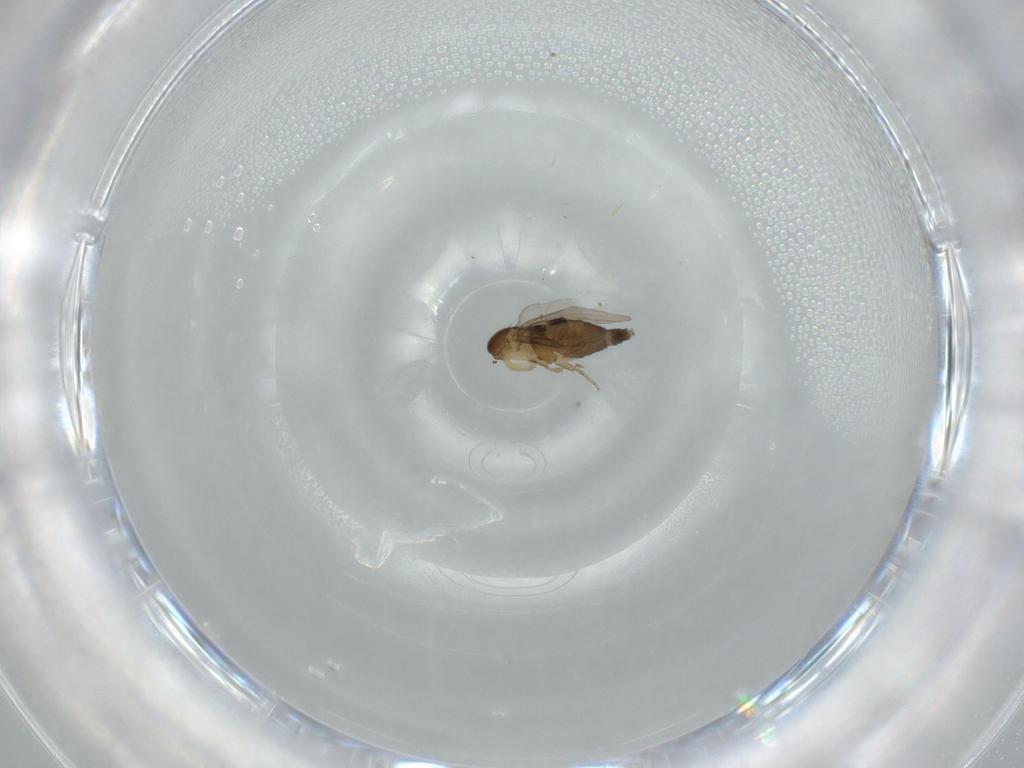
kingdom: Animalia
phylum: Arthropoda
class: Insecta
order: Diptera
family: Phoridae
